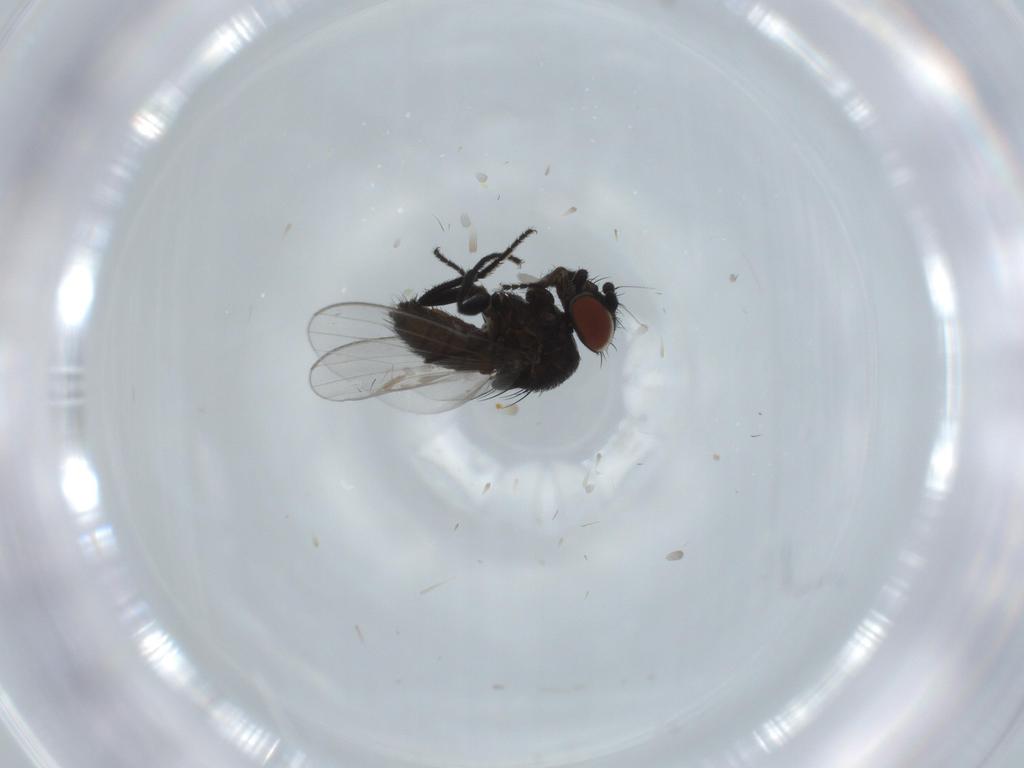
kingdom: Animalia
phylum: Arthropoda
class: Insecta
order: Diptera
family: Milichiidae
